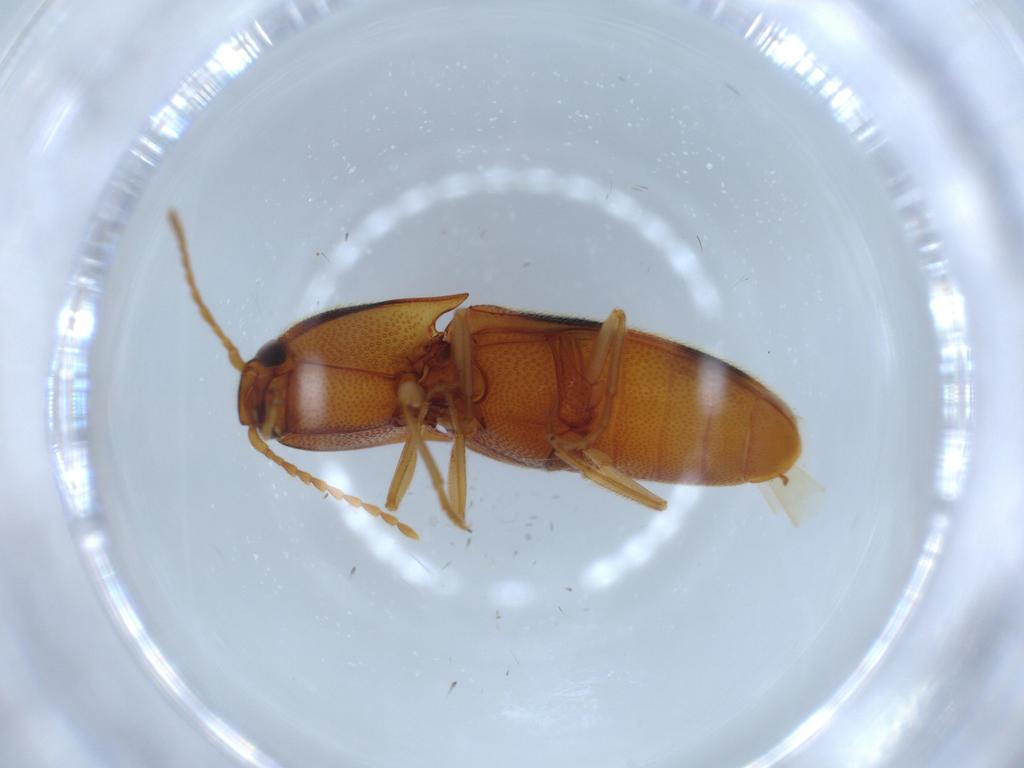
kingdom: Animalia
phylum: Arthropoda
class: Insecta
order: Coleoptera
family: Elateridae
